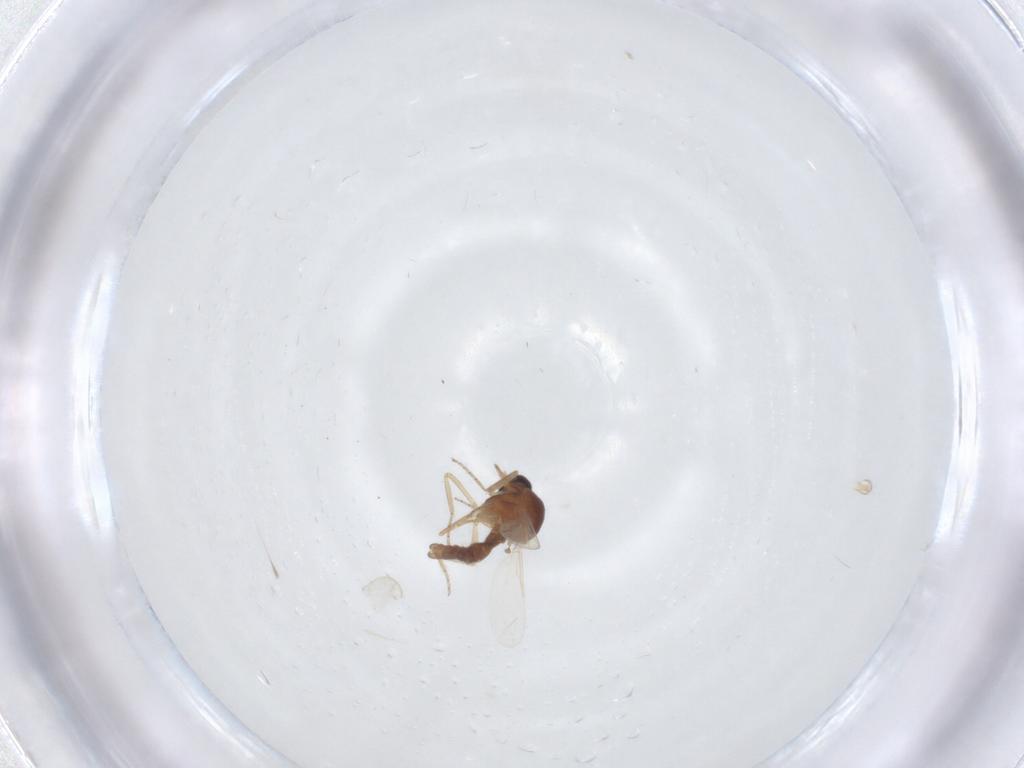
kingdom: Animalia
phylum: Arthropoda
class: Insecta
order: Diptera
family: Ceratopogonidae
